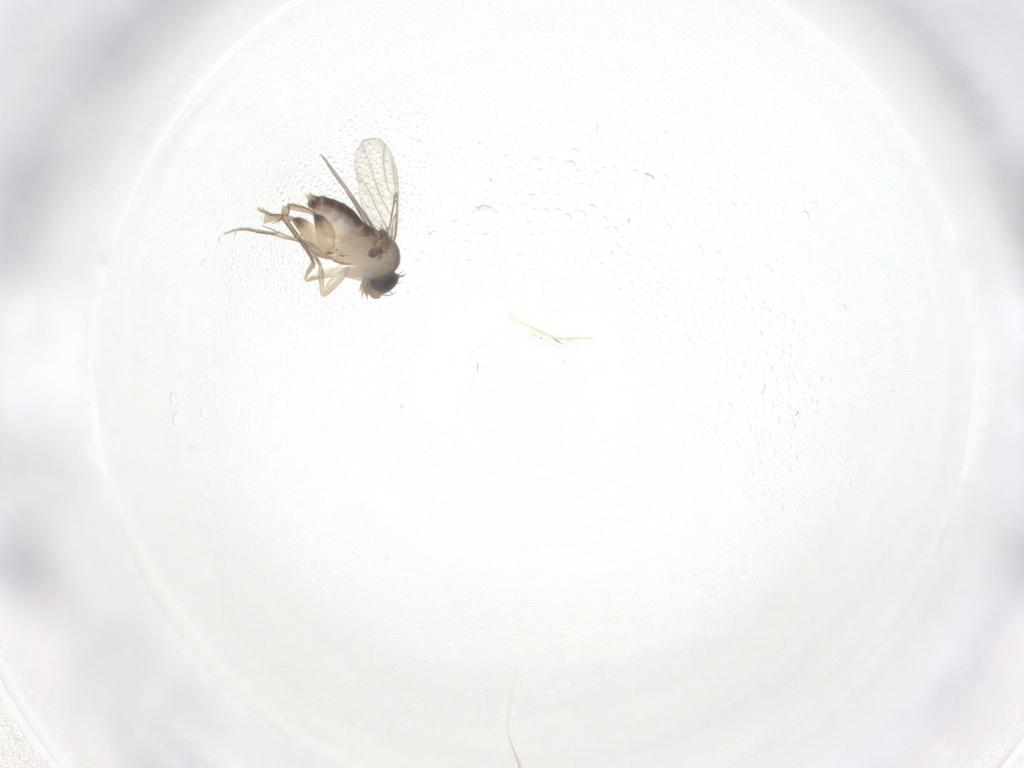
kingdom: Animalia
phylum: Arthropoda
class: Insecta
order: Diptera
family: Phoridae
